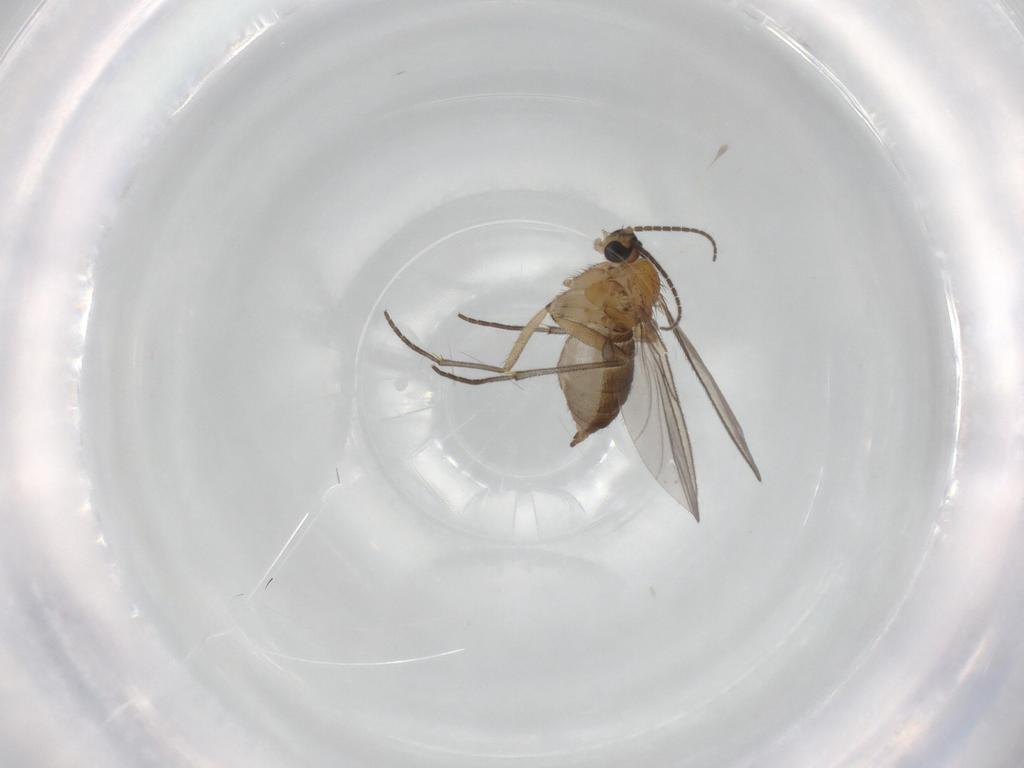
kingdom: Animalia
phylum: Arthropoda
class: Insecta
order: Diptera
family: Sciaridae
